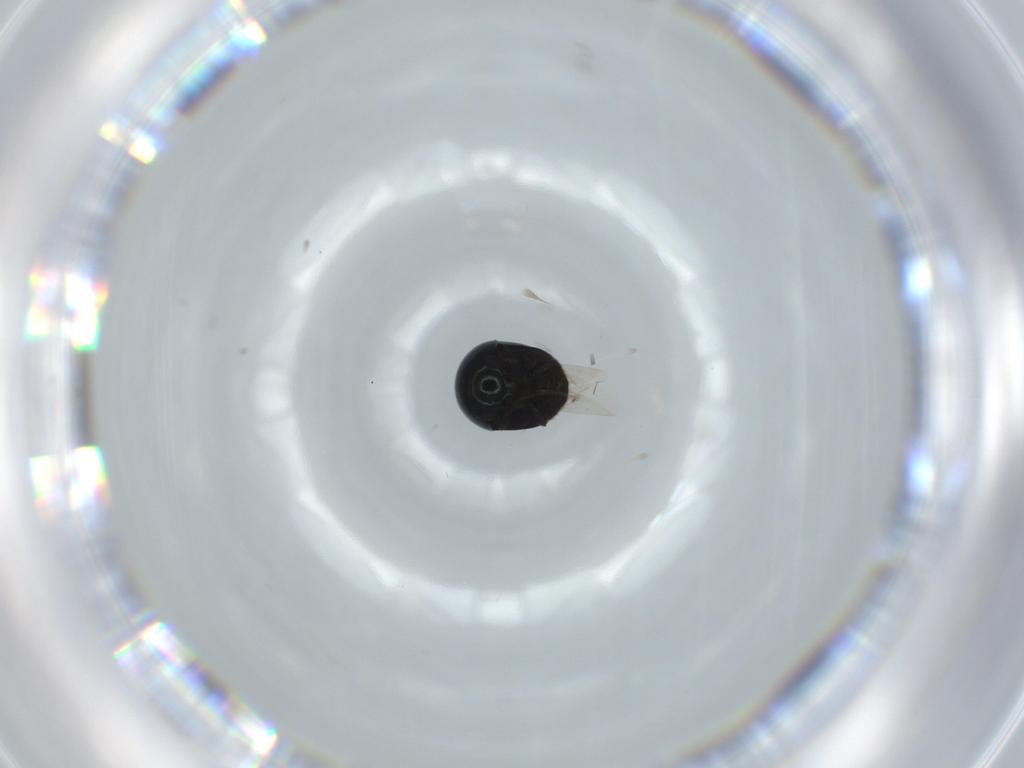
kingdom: Animalia
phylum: Arthropoda
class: Insecta
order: Coleoptera
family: Cybocephalidae
